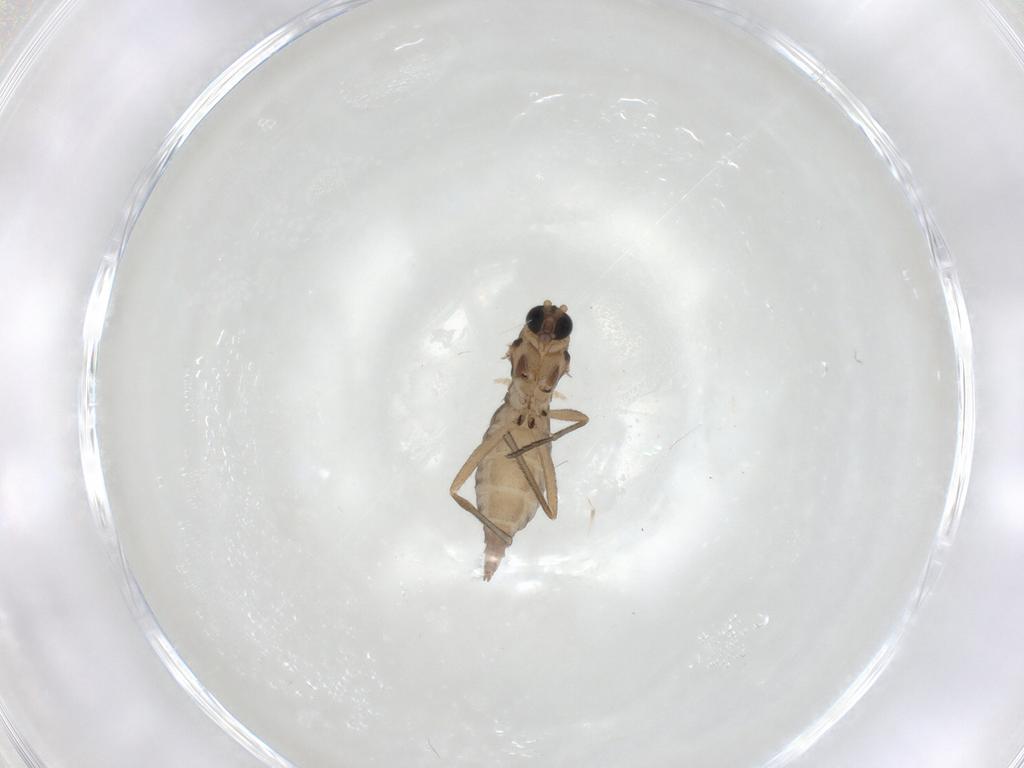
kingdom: Animalia
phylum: Arthropoda
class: Insecta
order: Diptera
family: Sciaridae
